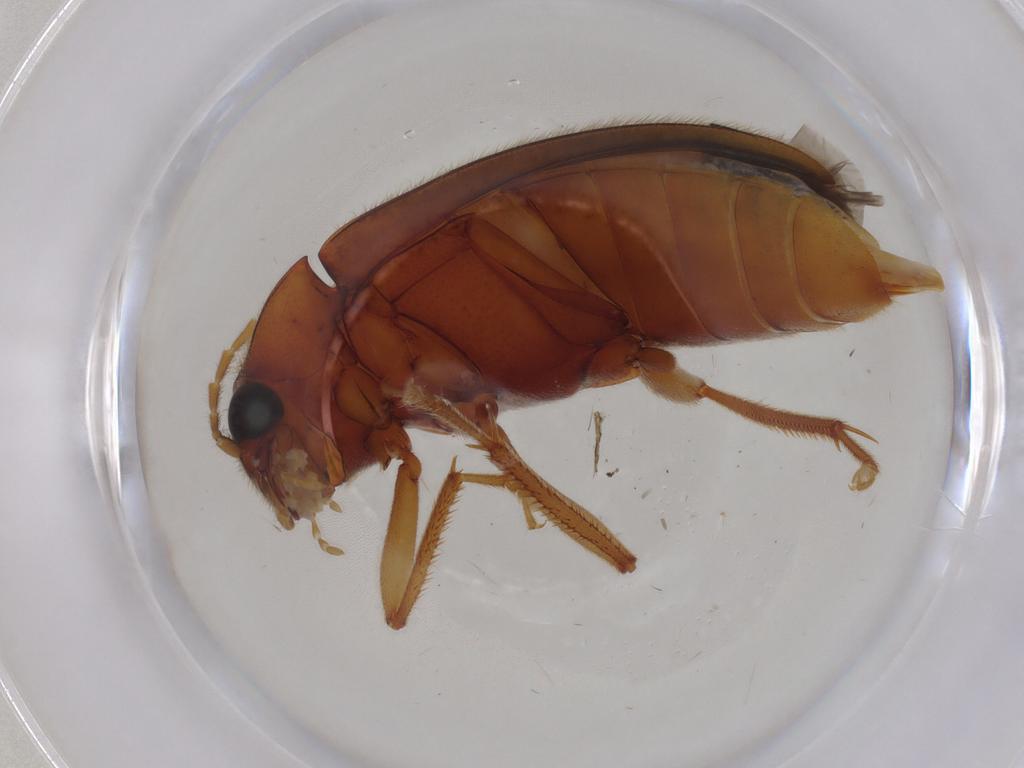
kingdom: Animalia
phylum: Arthropoda
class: Insecta
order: Coleoptera
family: Ptilodactylidae
